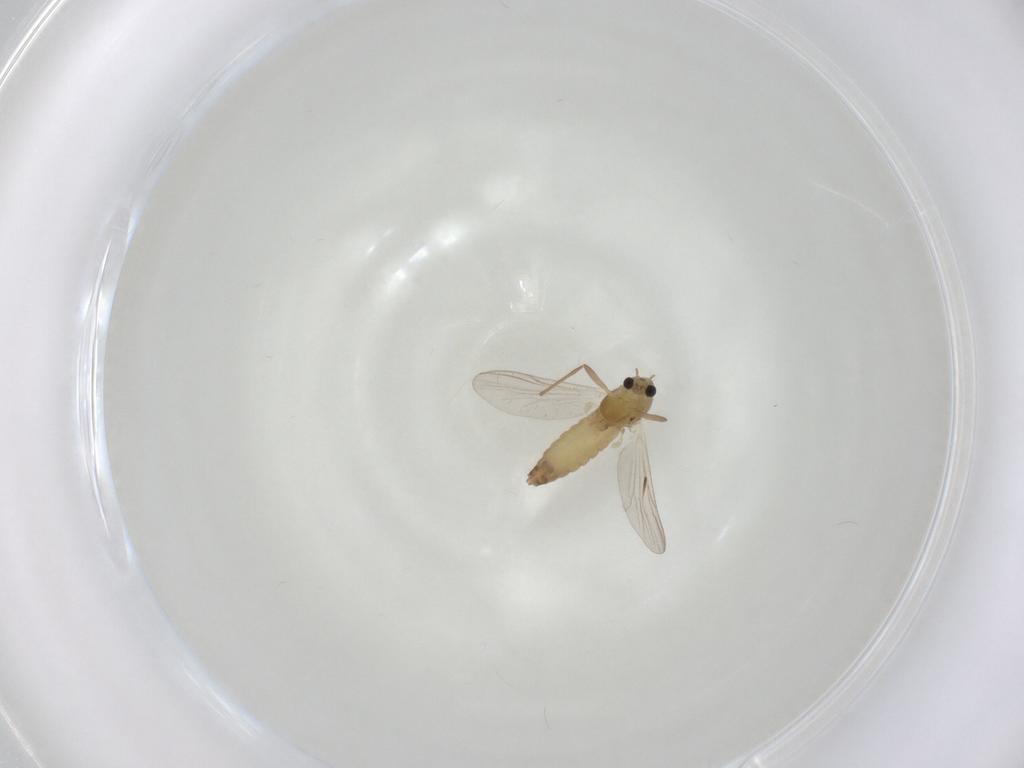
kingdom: Animalia
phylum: Arthropoda
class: Insecta
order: Diptera
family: Chironomidae
